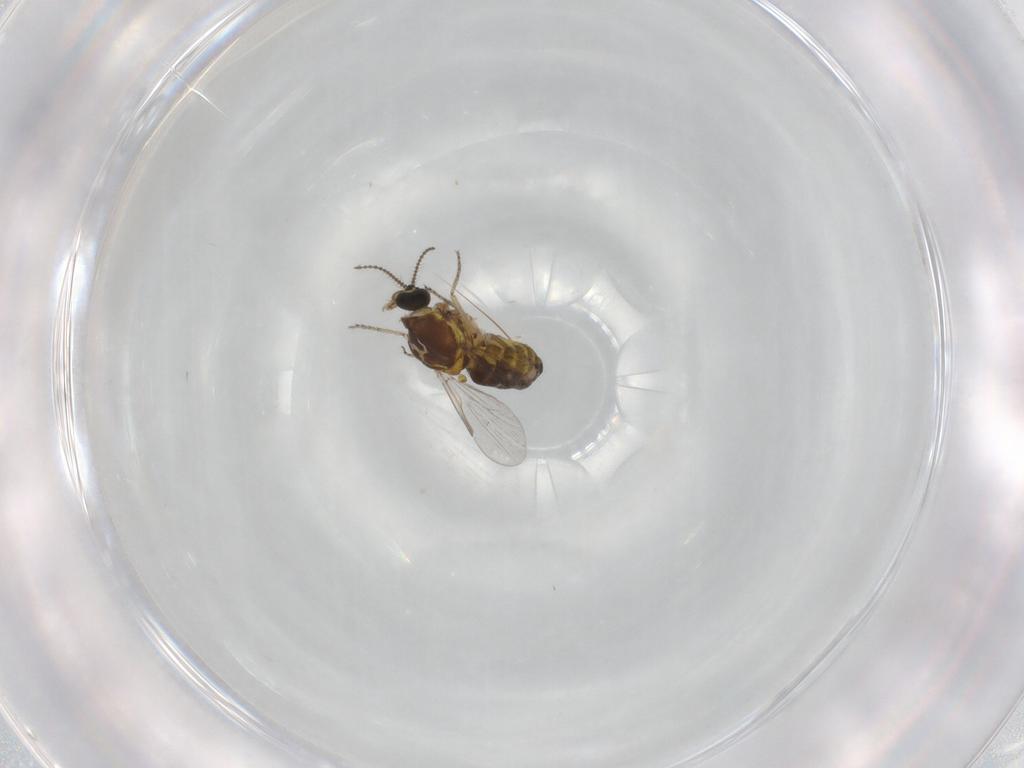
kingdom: Animalia
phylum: Arthropoda
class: Insecta
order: Diptera
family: Ceratopogonidae
